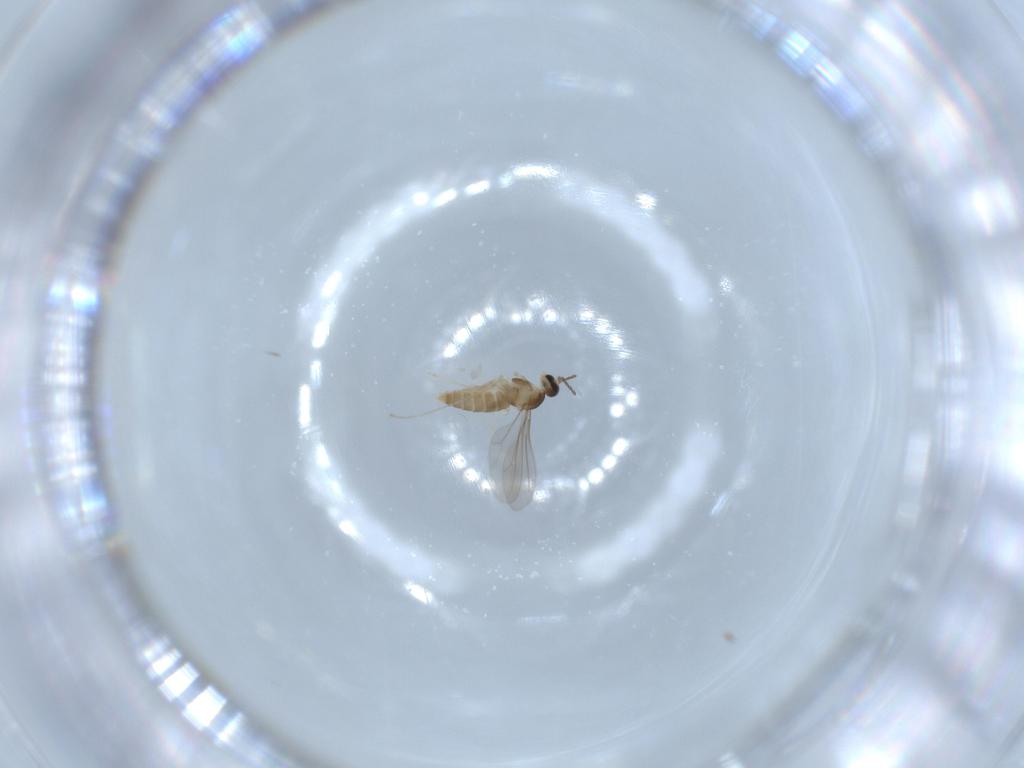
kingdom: Animalia
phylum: Arthropoda
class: Insecta
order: Diptera
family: Cecidomyiidae
